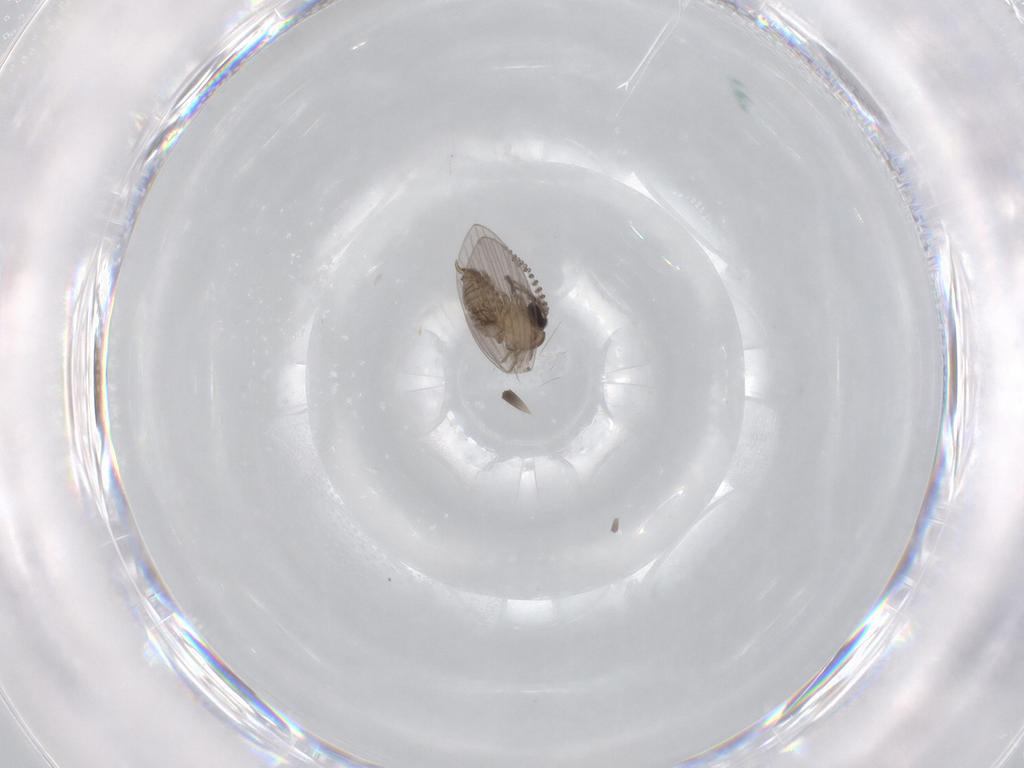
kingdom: Animalia
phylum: Arthropoda
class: Insecta
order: Diptera
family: Psychodidae
